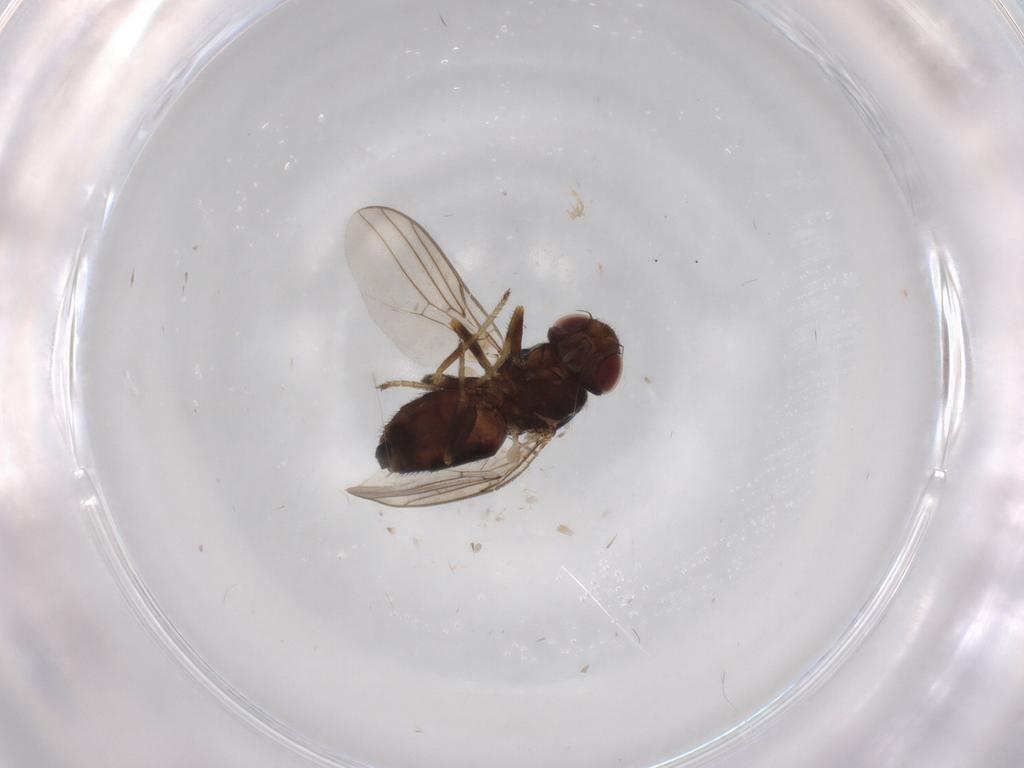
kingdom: Animalia
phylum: Arthropoda
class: Insecta
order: Diptera
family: Chloropidae
